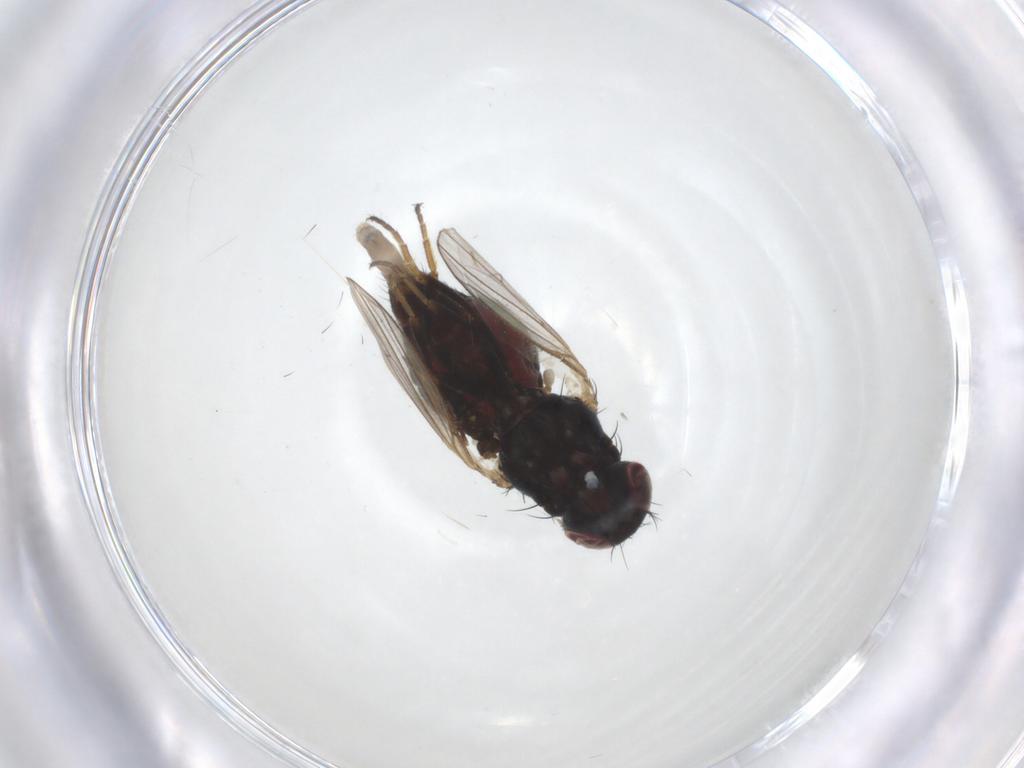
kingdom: Animalia
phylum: Arthropoda
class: Insecta
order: Diptera
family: Carnidae
